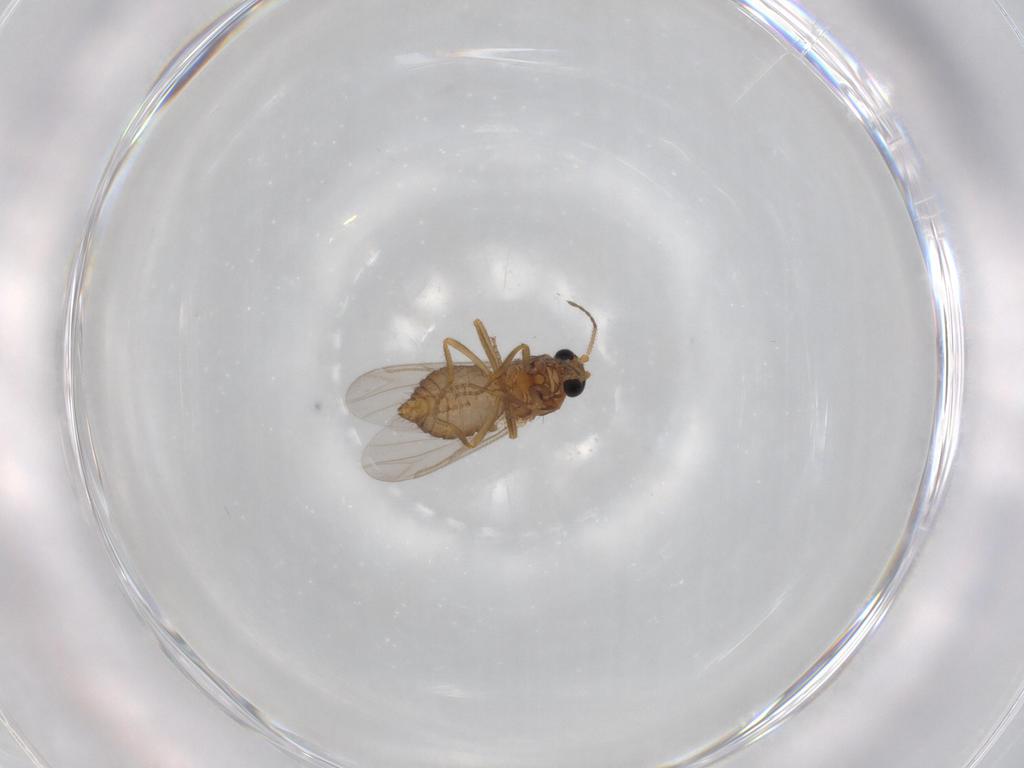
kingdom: Animalia
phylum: Arthropoda
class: Insecta
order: Diptera
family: Ceratopogonidae
